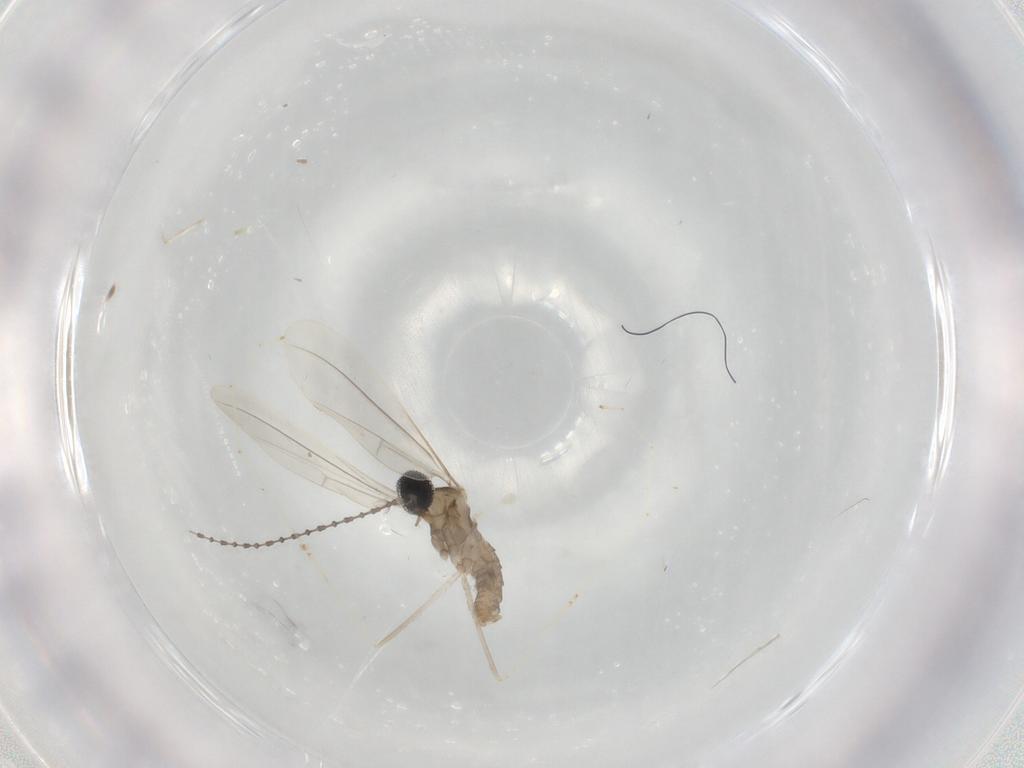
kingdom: Animalia
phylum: Arthropoda
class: Insecta
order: Diptera
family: Cecidomyiidae
